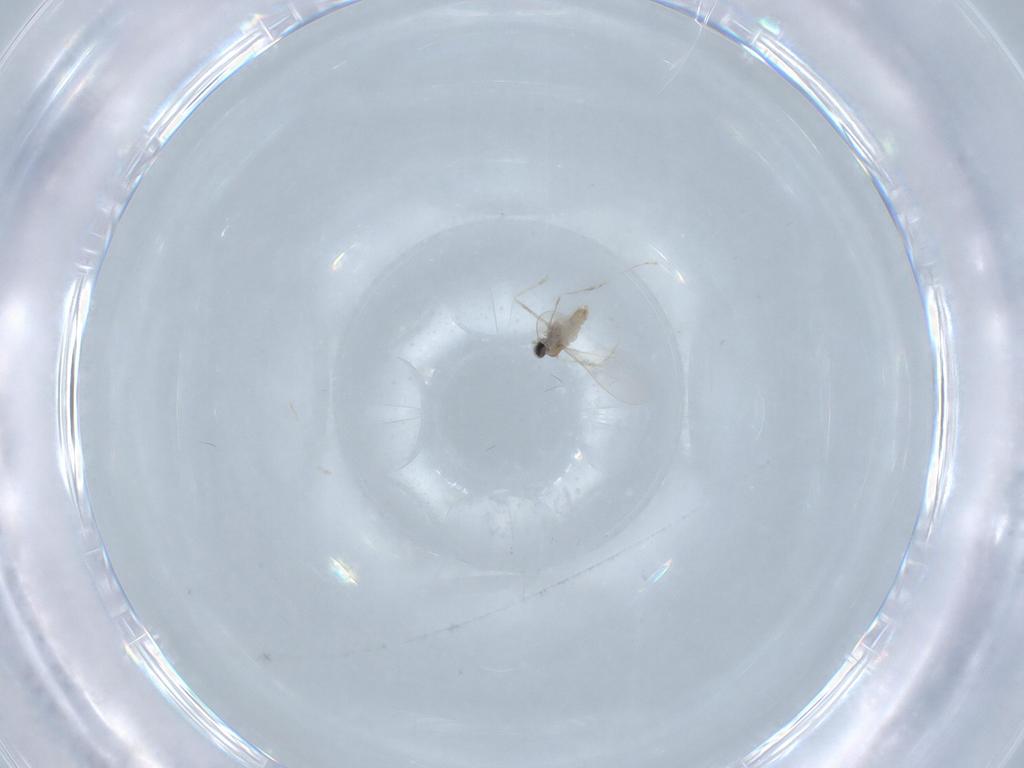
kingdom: Animalia
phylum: Arthropoda
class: Insecta
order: Diptera
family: Cecidomyiidae
